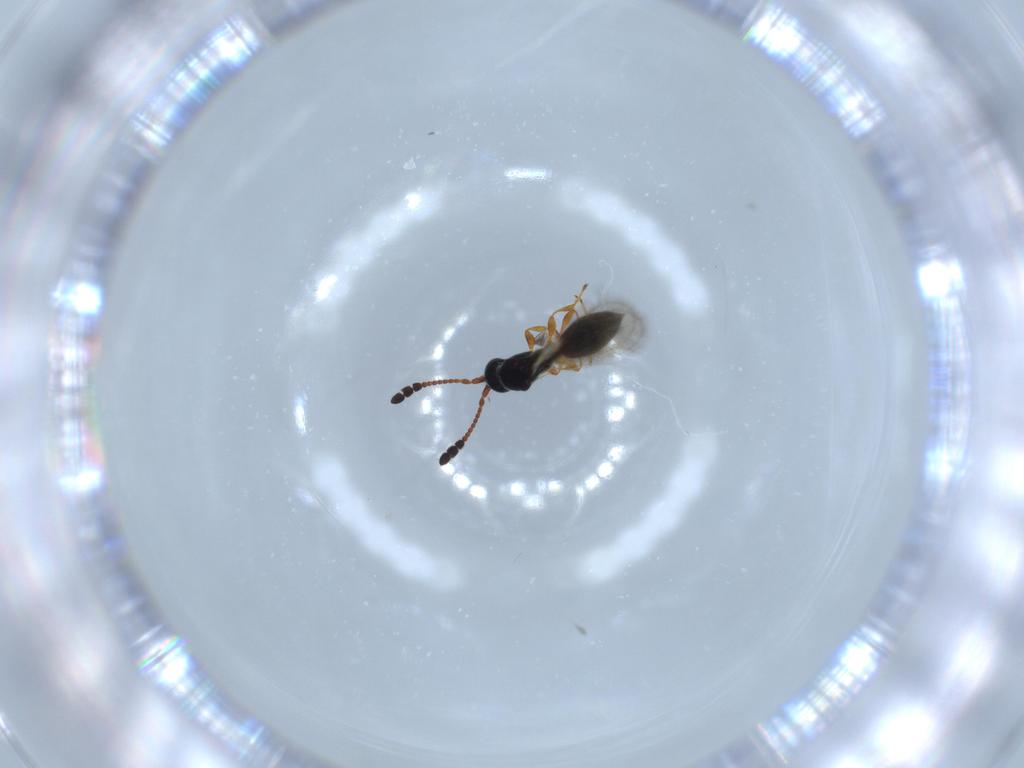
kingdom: Animalia
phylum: Arthropoda
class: Insecta
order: Hymenoptera
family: Diapriidae
